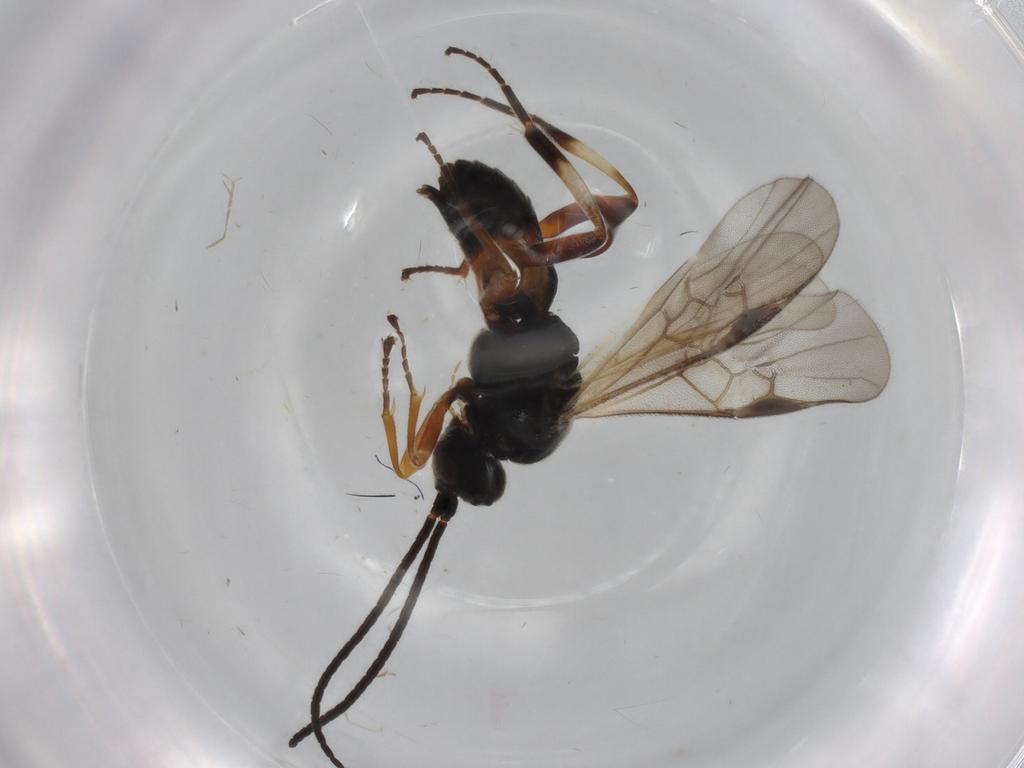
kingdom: Animalia
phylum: Arthropoda
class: Insecta
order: Hymenoptera
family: Braconidae
